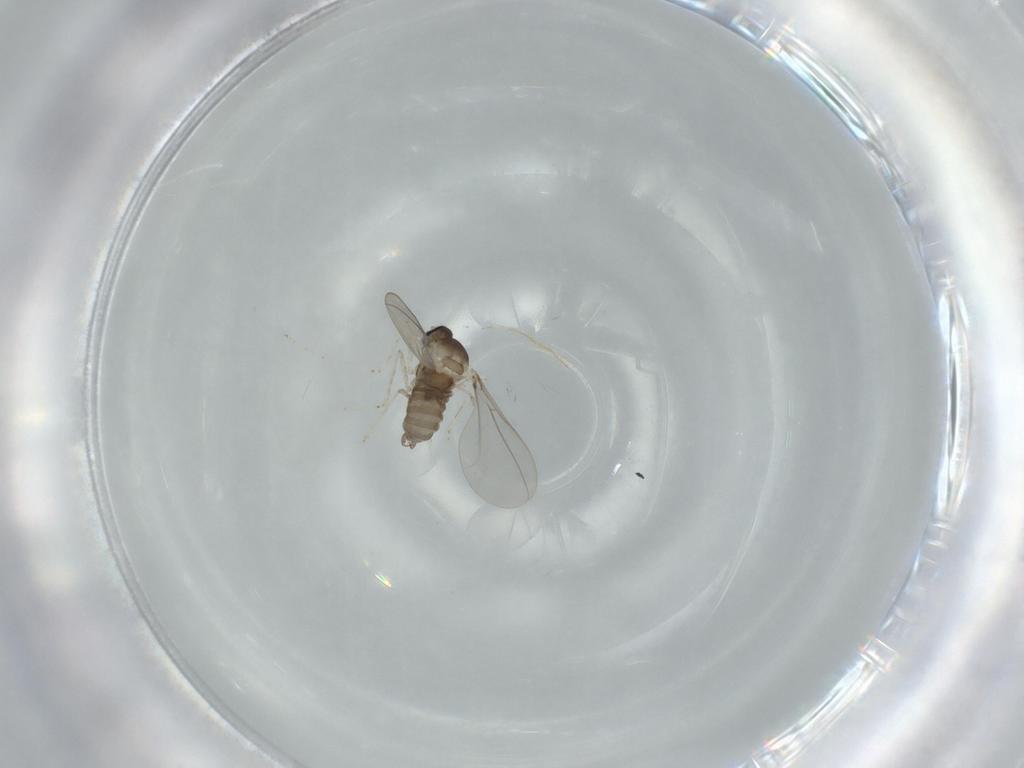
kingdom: Animalia
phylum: Arthropoda
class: Insecta
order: Diptera
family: Cecidomyiidae
